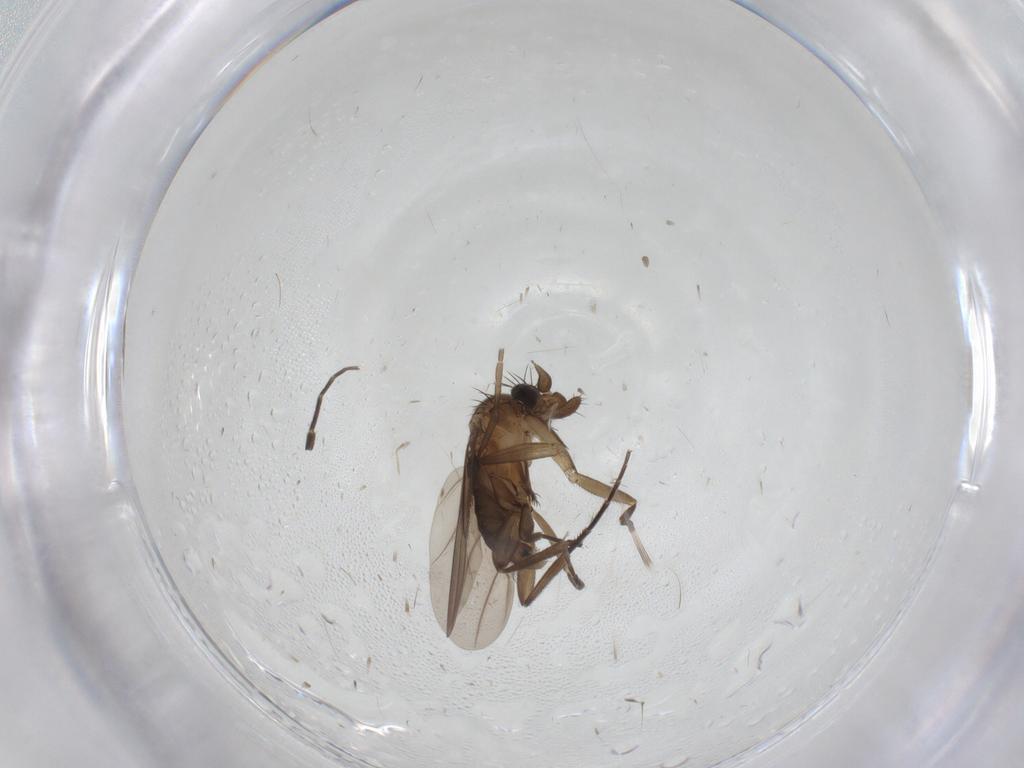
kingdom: Animalia
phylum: Arthropoda
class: Insecta
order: Diptera
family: Phoridae
